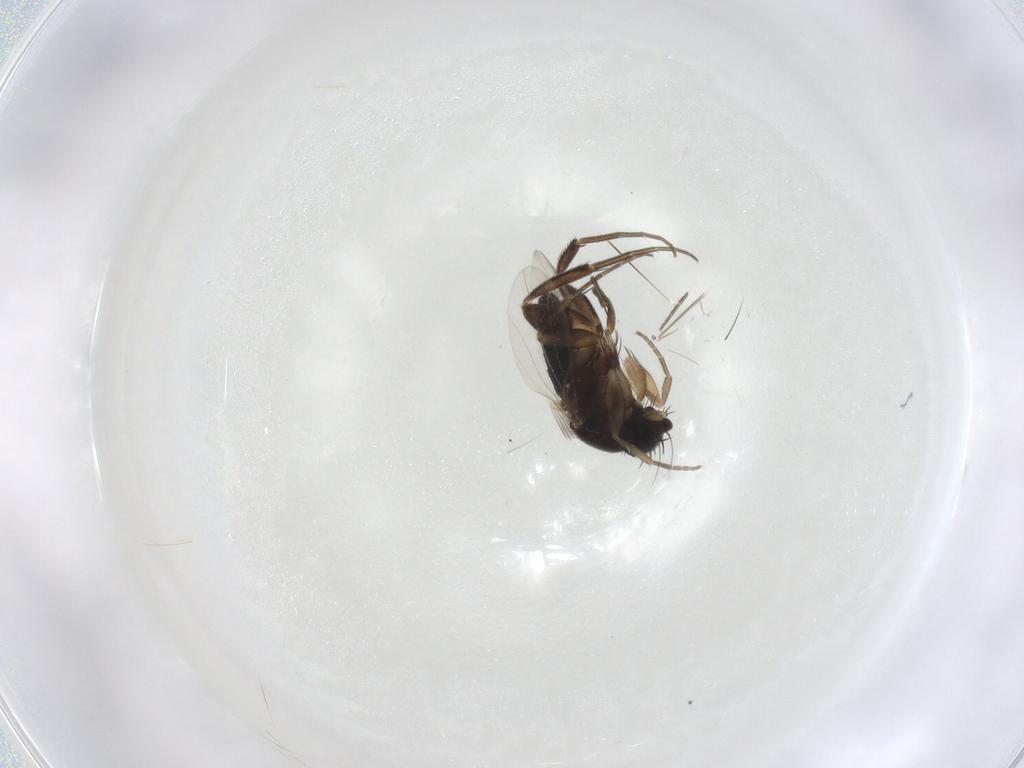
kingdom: Animalia
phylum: Arthropoda
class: Insecta
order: Diptera
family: Phoridae
